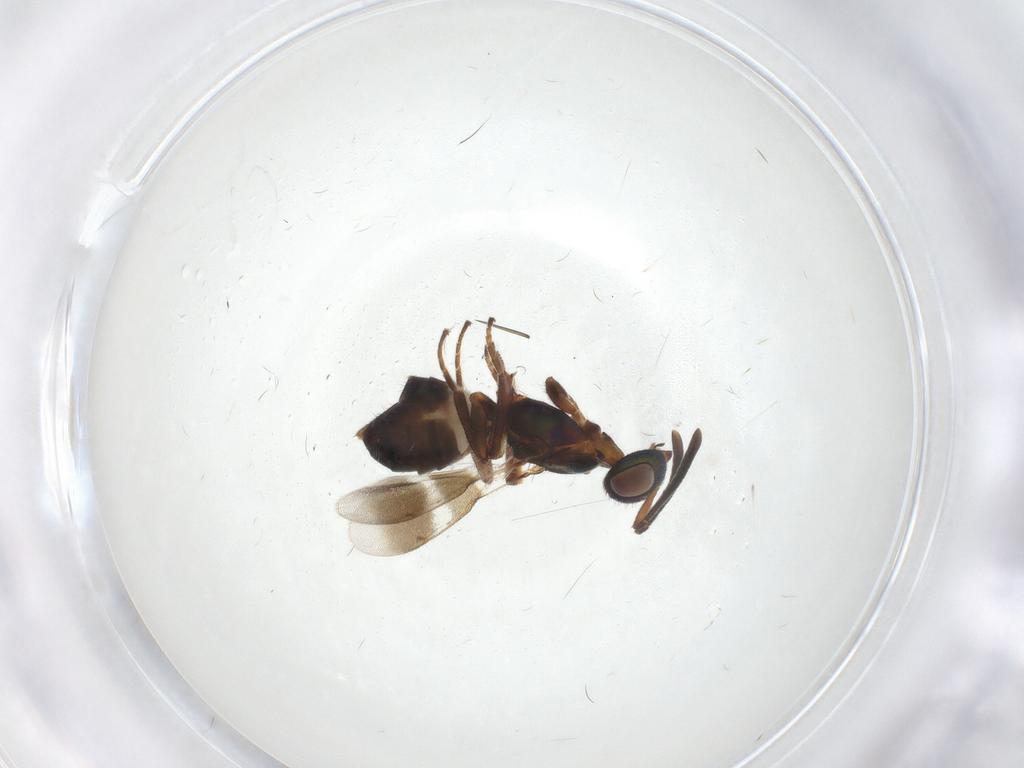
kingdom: Animalia
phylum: Arthropoda
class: Insecta
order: Hymenoptera
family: Eupelmidae
